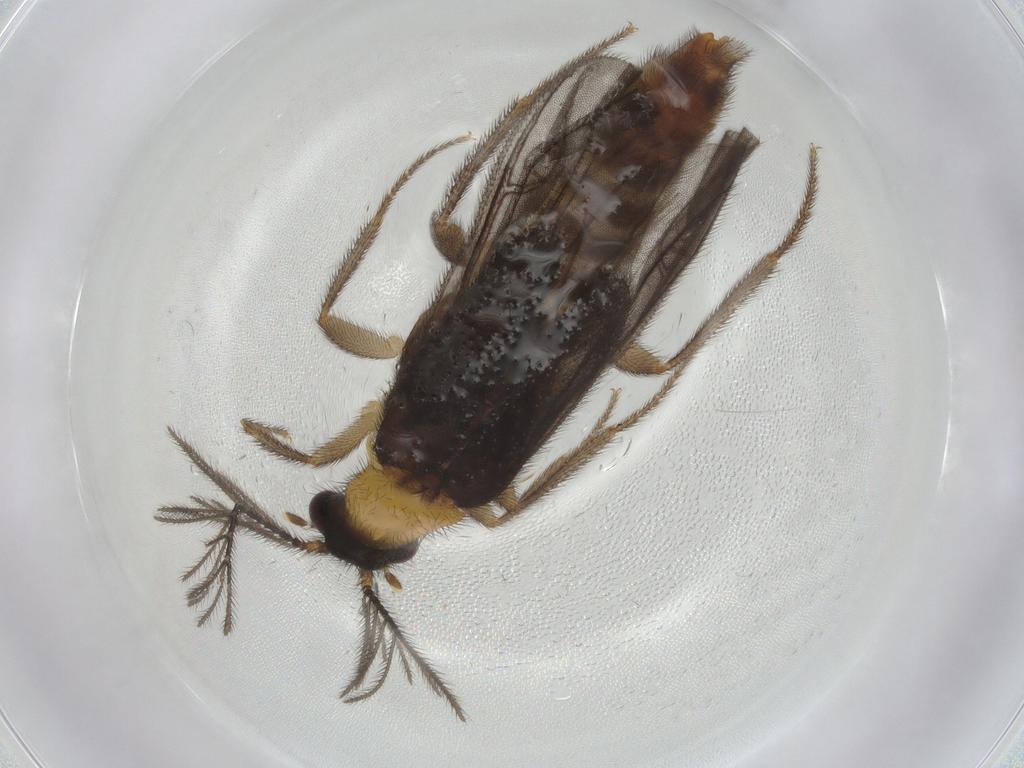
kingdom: Animalia
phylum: Arthropoda
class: Insecta
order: Coleoptera
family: Phengodidae
